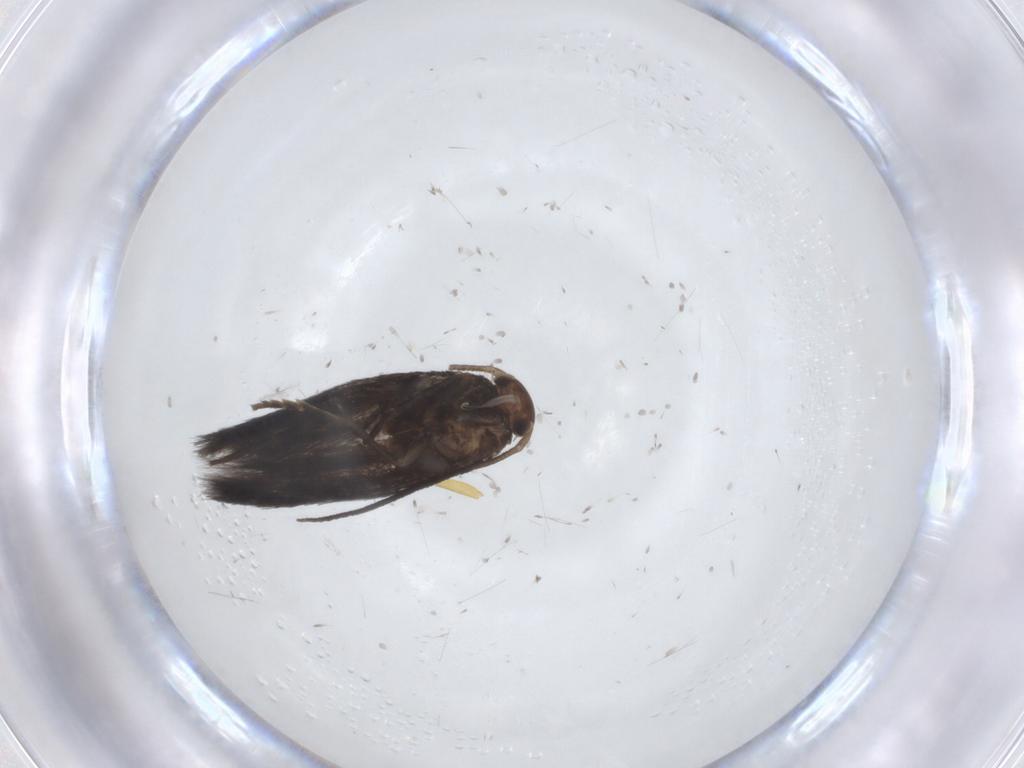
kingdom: Animalia
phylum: Arthropoda
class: Insecta
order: Lepidoptera
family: Elachistidae
